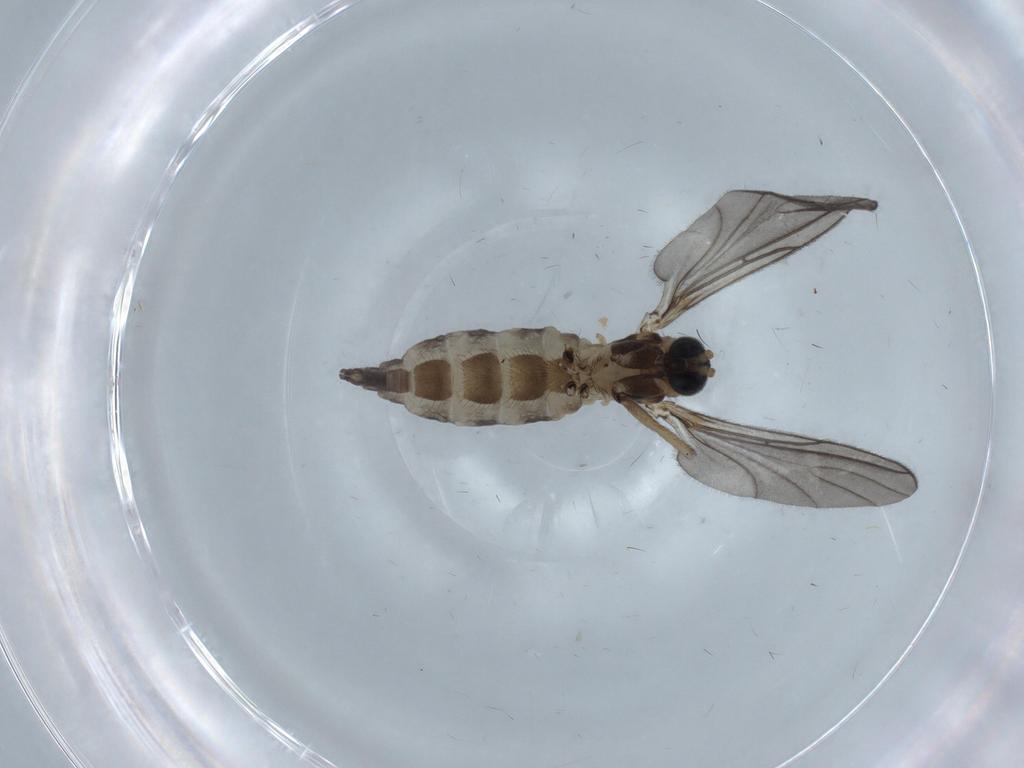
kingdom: Animalia
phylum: Arthropoda
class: Insecta
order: Diptera
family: Sciaridae
